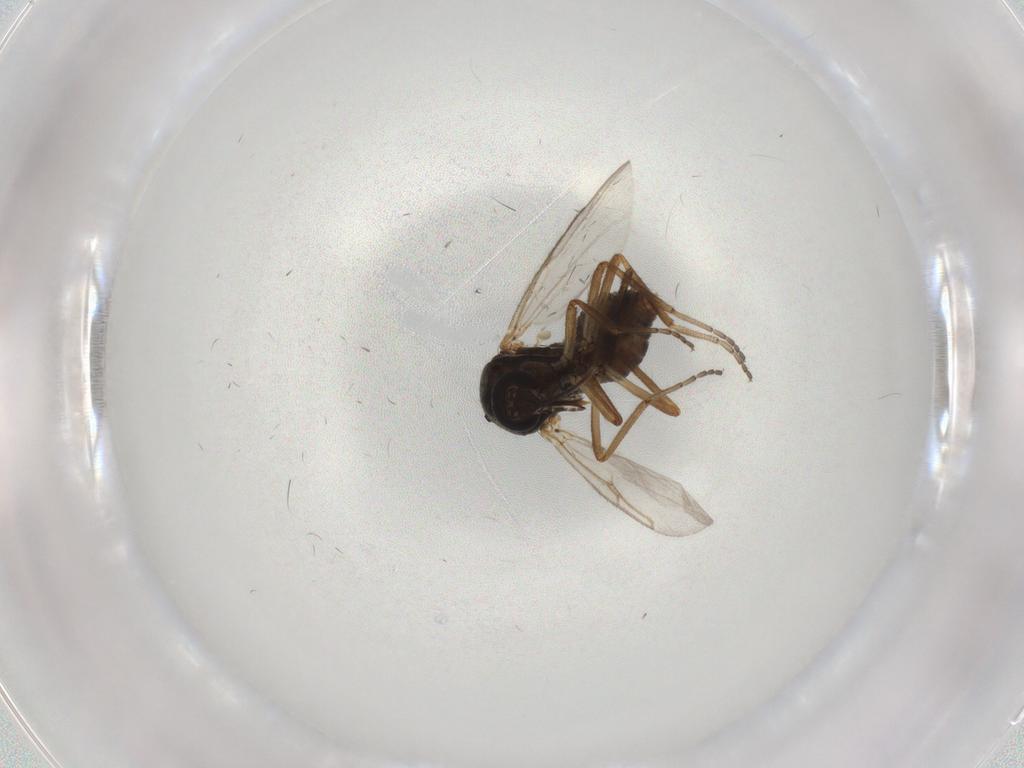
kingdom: Animalia
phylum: Arthropoda
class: Insecta
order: Diptera
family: Ceratopogonidae
